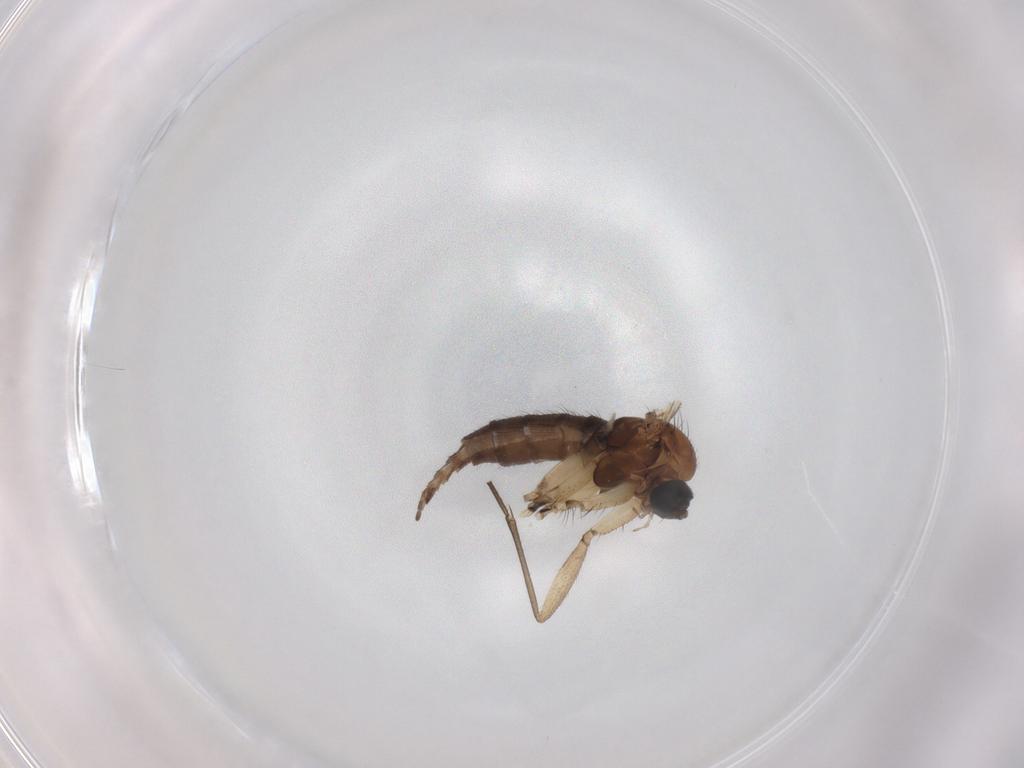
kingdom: Animalia
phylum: Arthropoda
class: Insecta
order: Diptera
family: Sciaridae
